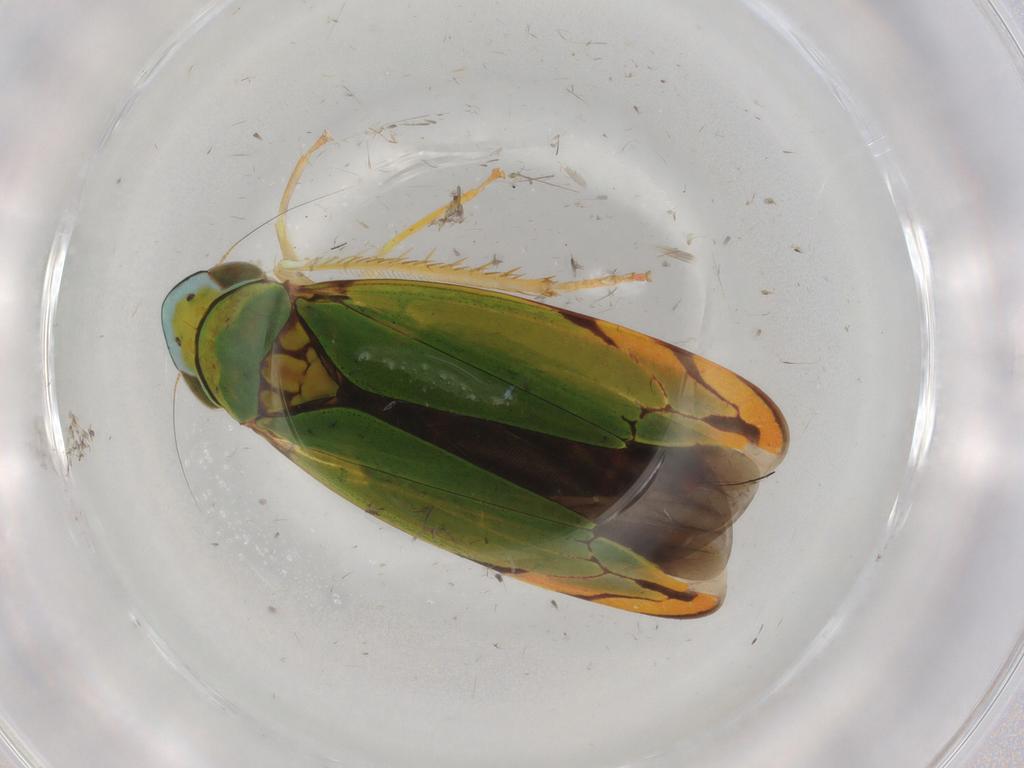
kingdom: Animalia
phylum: Arthropoda
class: Insecta
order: Hemiptera
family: Cicadellidae
